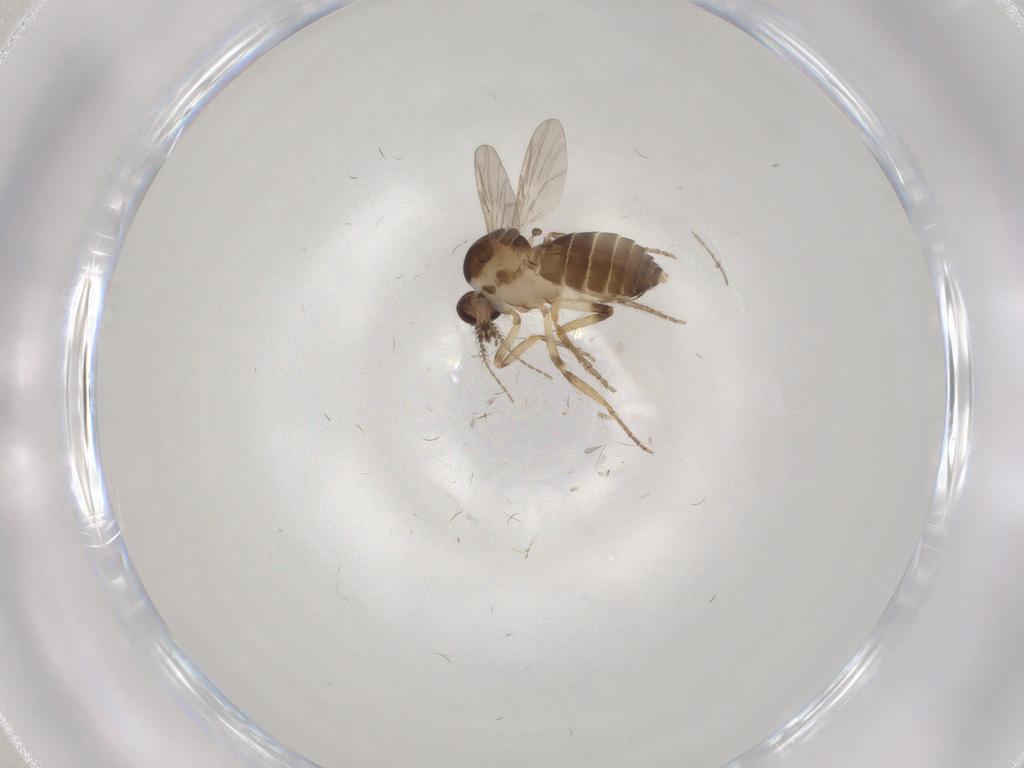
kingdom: Animalia
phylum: Arthropoda
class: Insecta
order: Diptera
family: Ceratopogonidae
